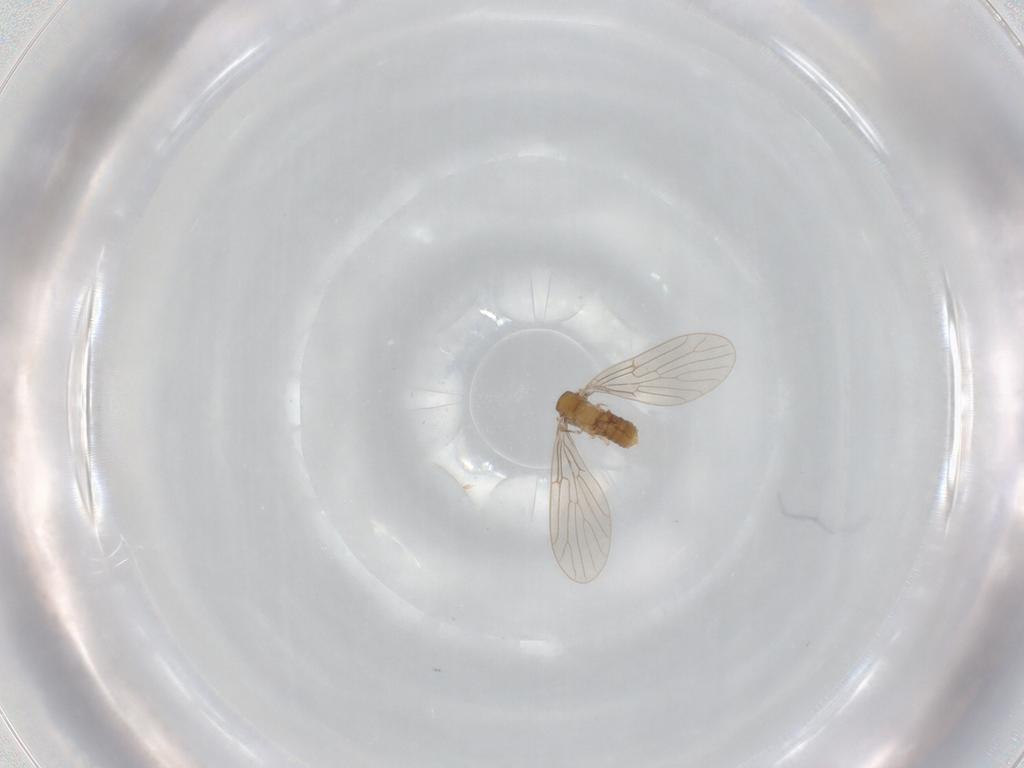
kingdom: Animalia
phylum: Arthropoda
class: Insecta
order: Diptera
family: Psychodidae
